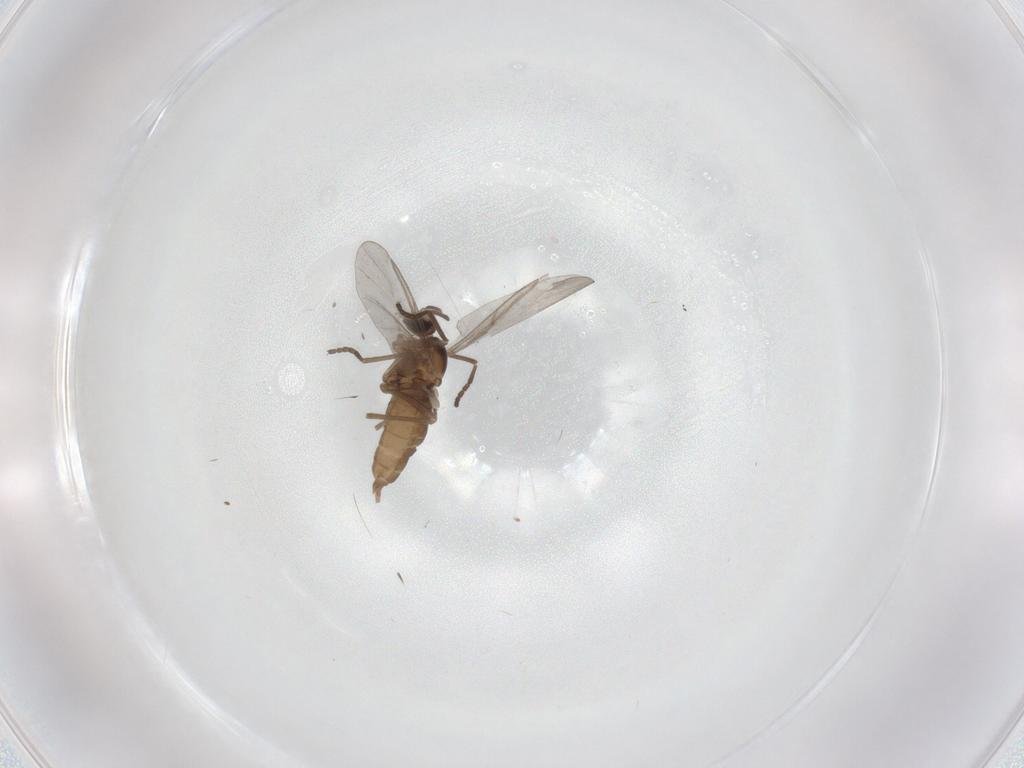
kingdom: Animalia
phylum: Arthropoda
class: Insecta
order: Diptera
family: Cecidomyiidae
